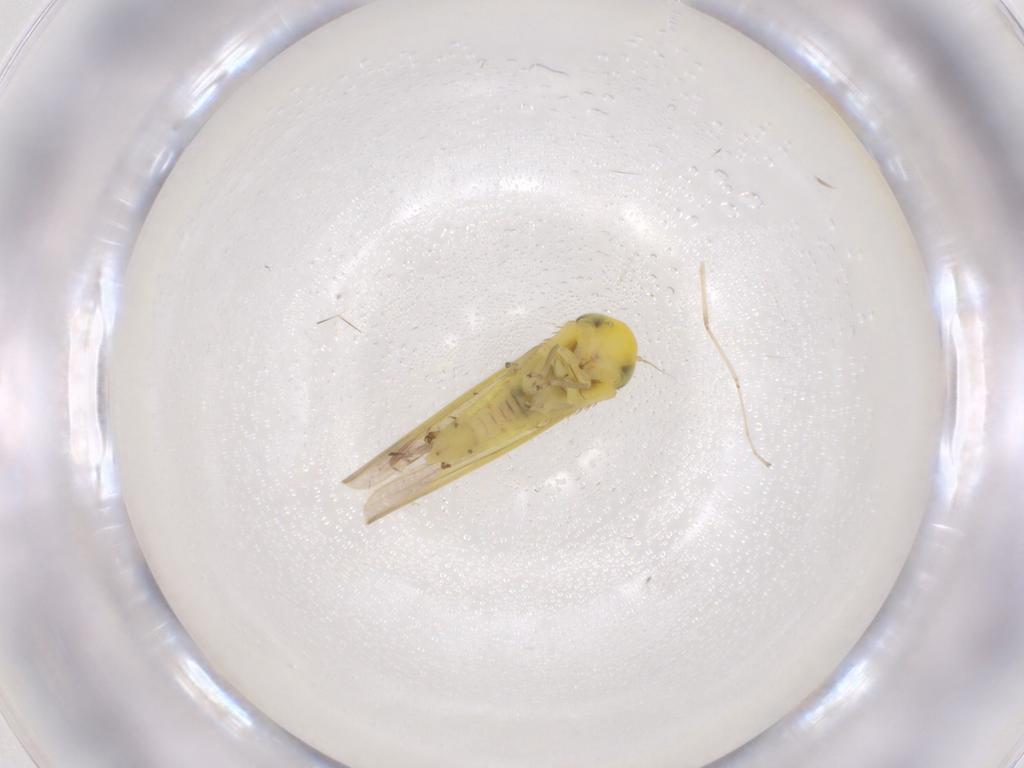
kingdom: Animalia
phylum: Arthropoda
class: Insecta
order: Hemiptera
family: Cicadellidae
